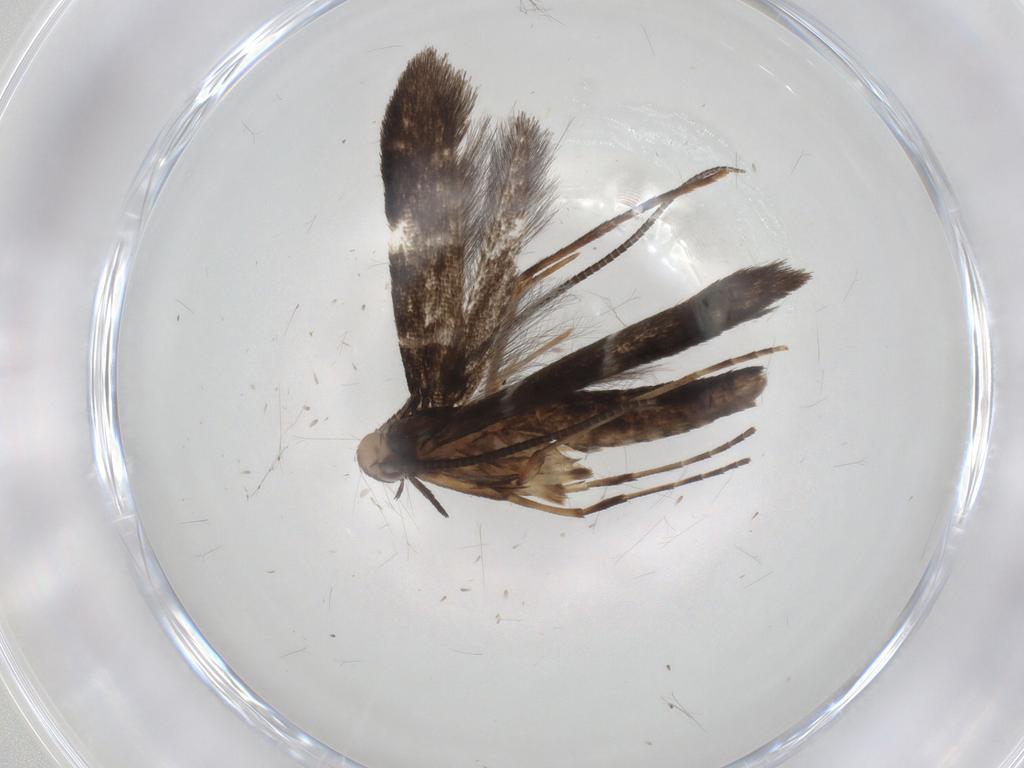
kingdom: Animalia
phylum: Arthropoda
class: Insecta
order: Lepidoptera
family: Gracillariidae
